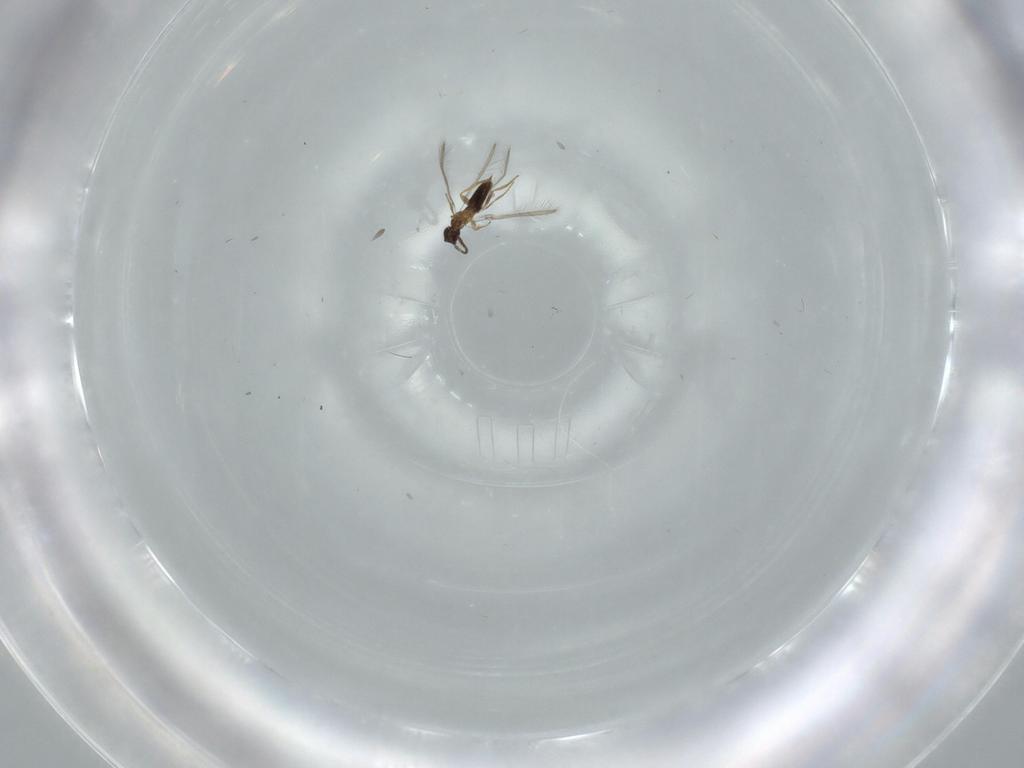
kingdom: Animalia
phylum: Arthropoda
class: Insecta
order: Hymenoptera
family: Mymaridae
